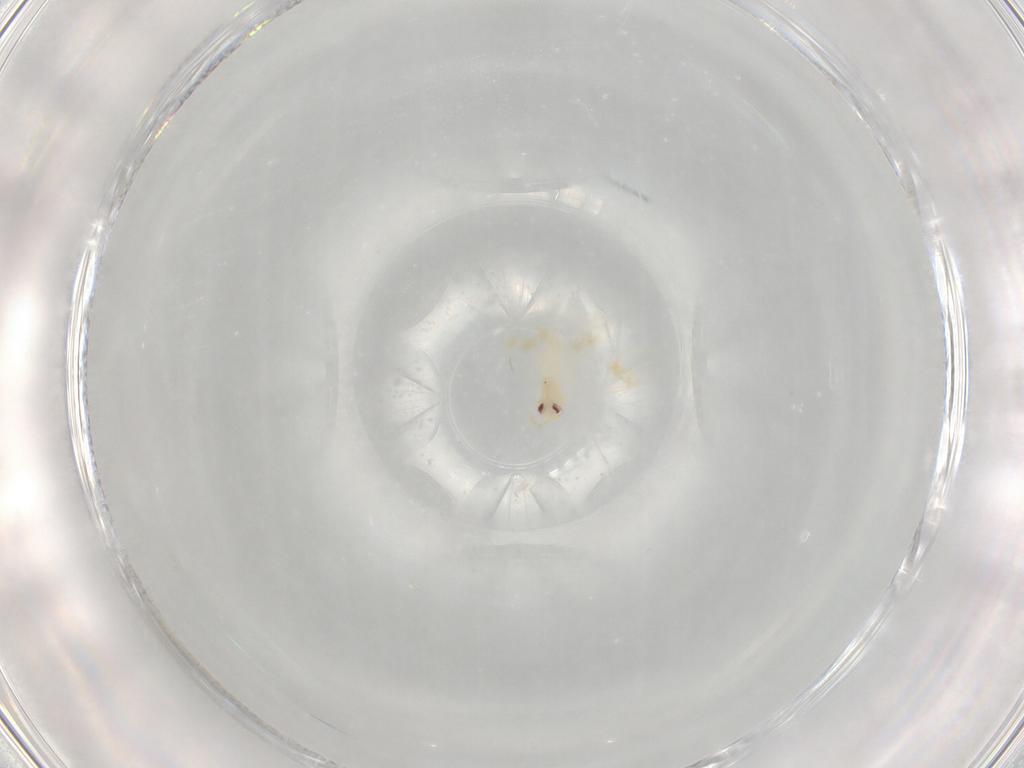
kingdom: Animalia
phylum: Arthropoda
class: Insecta
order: Hemiptera
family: Aleyrodidae
